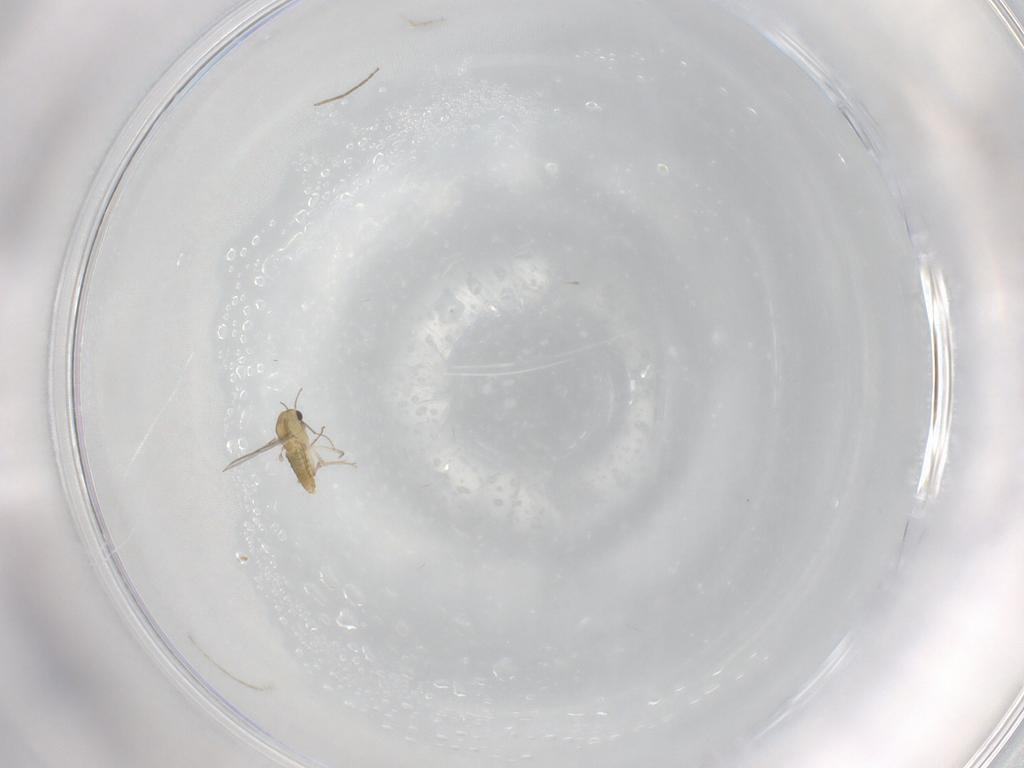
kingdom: Animalia
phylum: Arthropoda
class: Insecta
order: Diptera
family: Chironomidae
